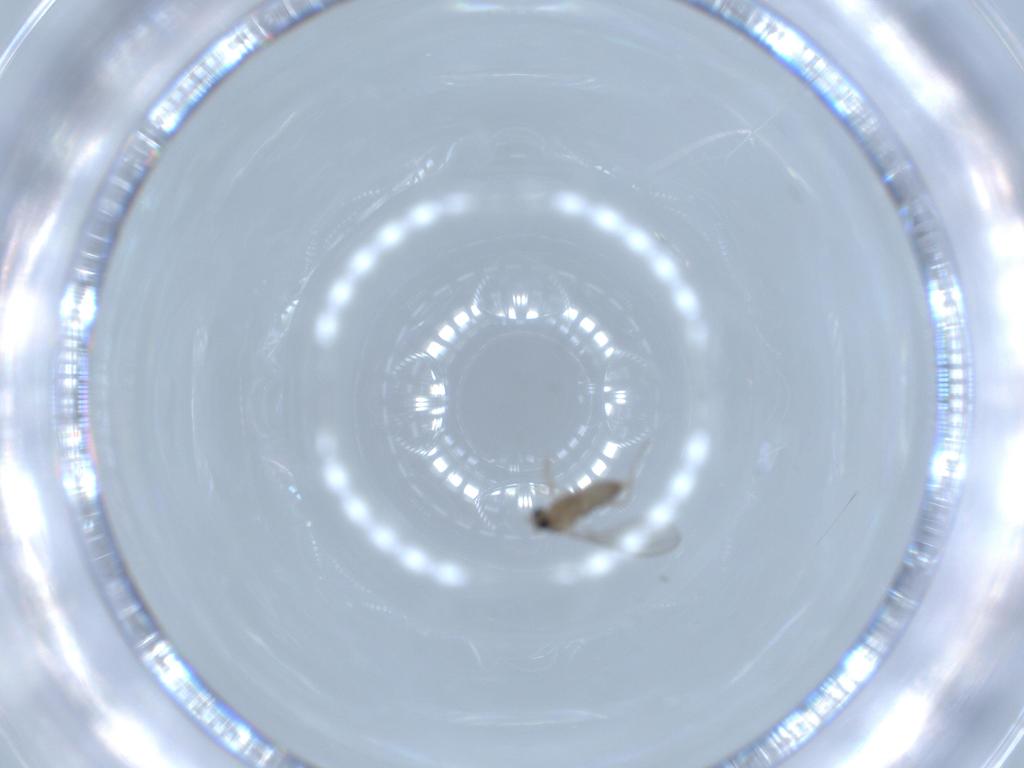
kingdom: Animalia
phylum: Arthropoda
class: Insecta
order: Diptera
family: Cecidomyiidae
